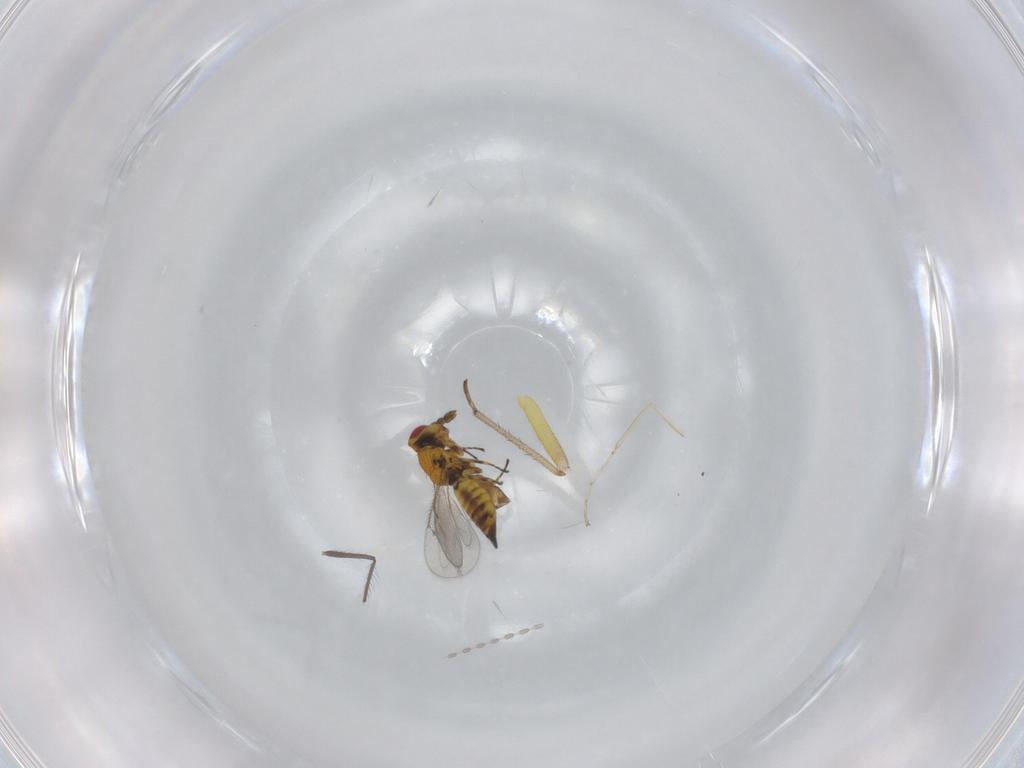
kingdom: Animalia
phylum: Arthropoda
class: Insecta
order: Hymenoptera
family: Eulophidae
